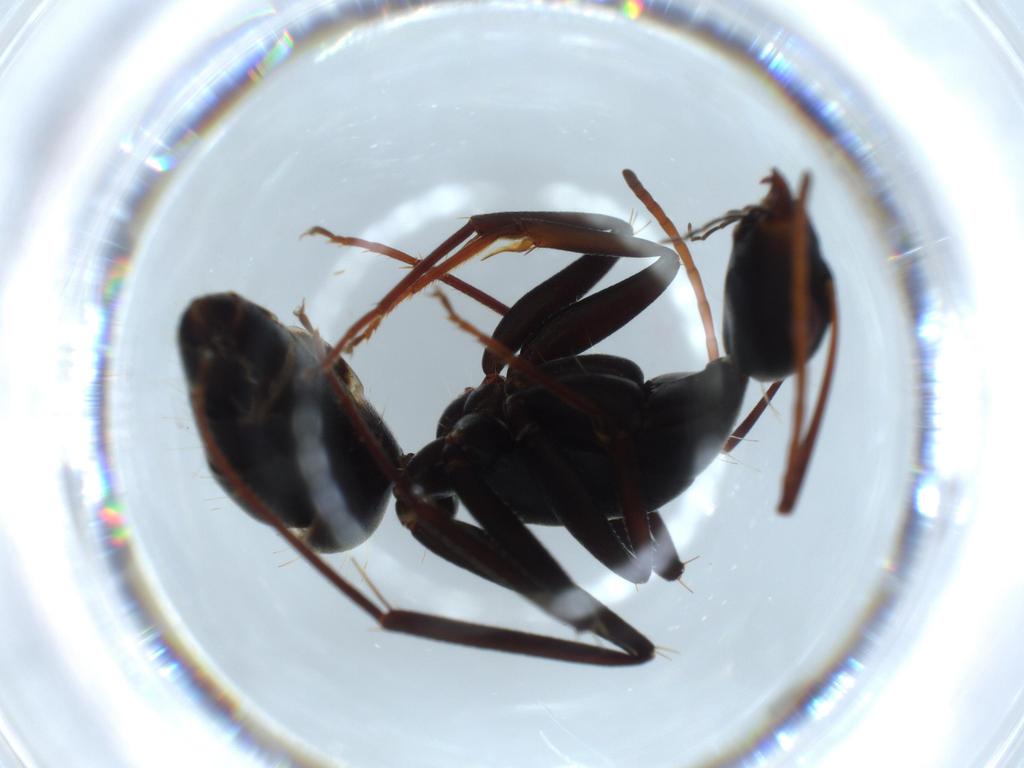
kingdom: Animalia
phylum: Arthropoda
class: Insecta
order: Hymenoptera
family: Formicidae
